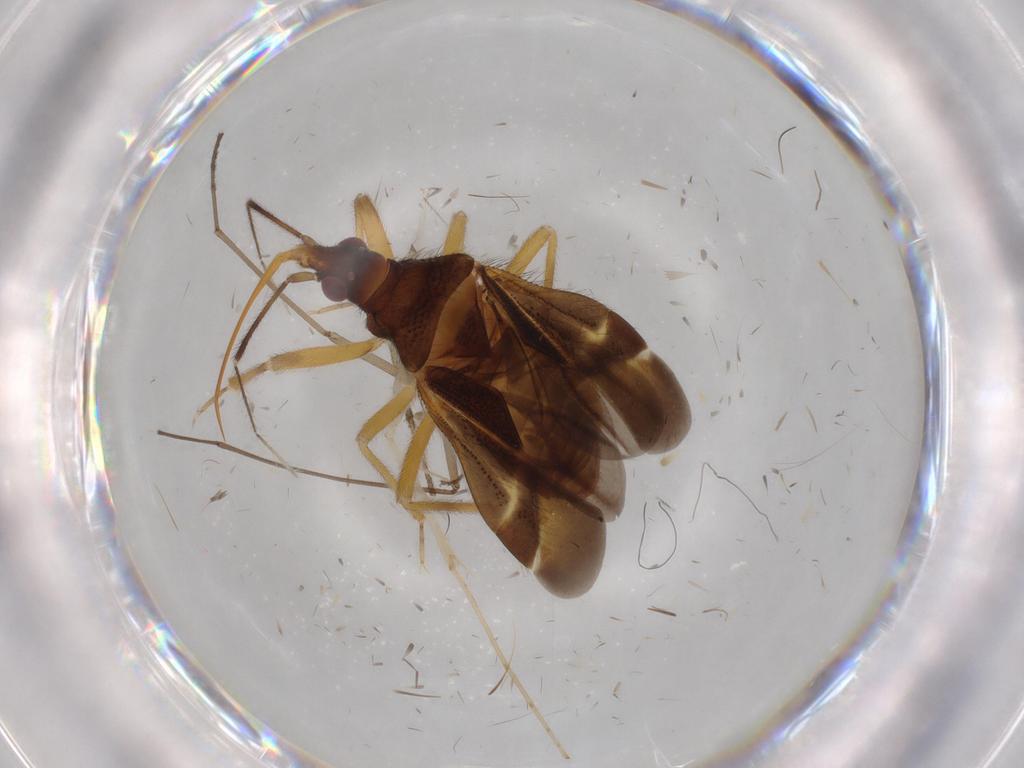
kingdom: Animalia
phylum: Arthropoda
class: Insecta
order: Hemiptera
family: Anthocoridae
